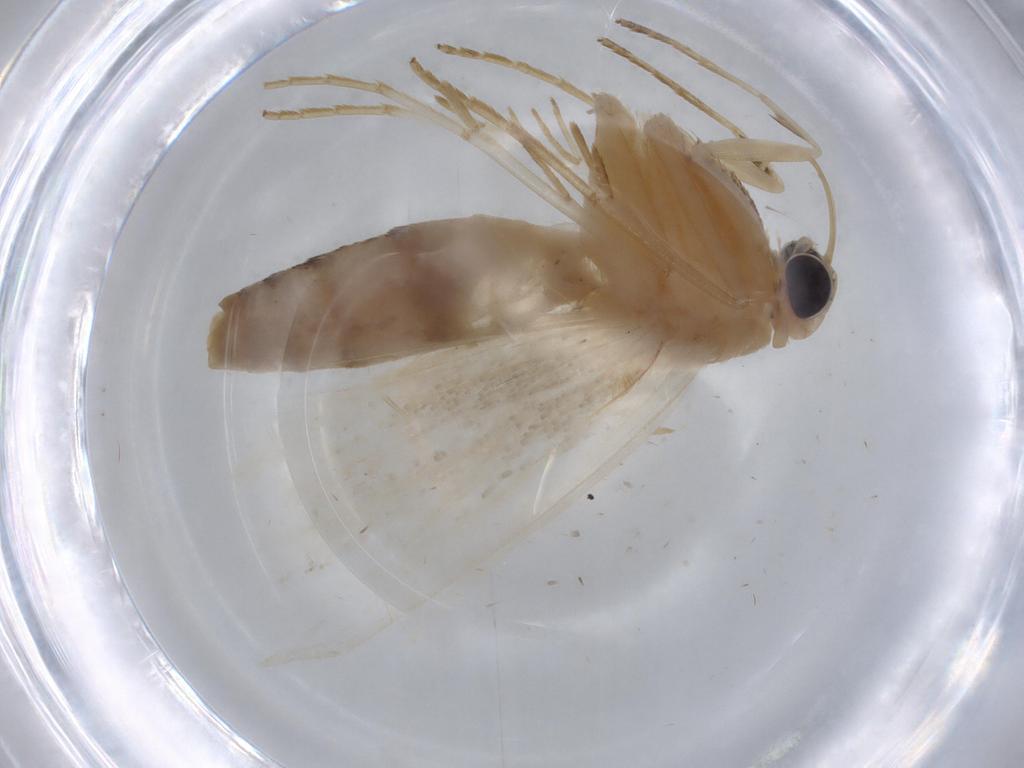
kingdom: Animalia
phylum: Arthropoda
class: Insecta
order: Lepidoptera
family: Erebidae
